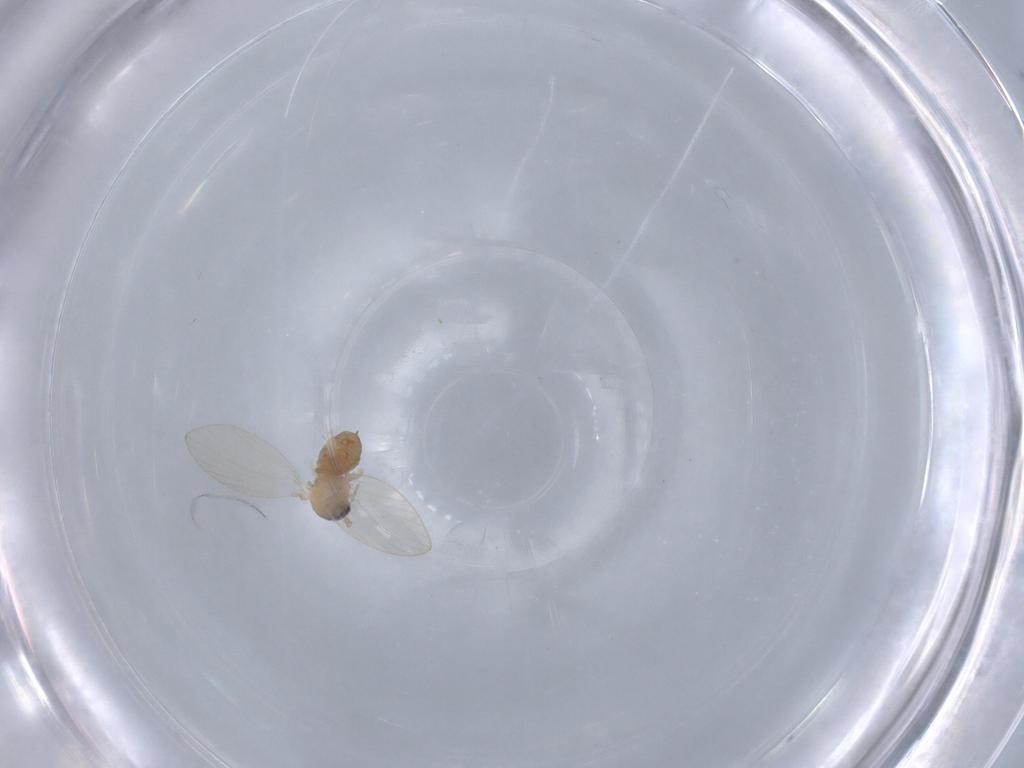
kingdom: Animalia
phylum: Arthropoda
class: Insecta
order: Diptera
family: Psychodidae
